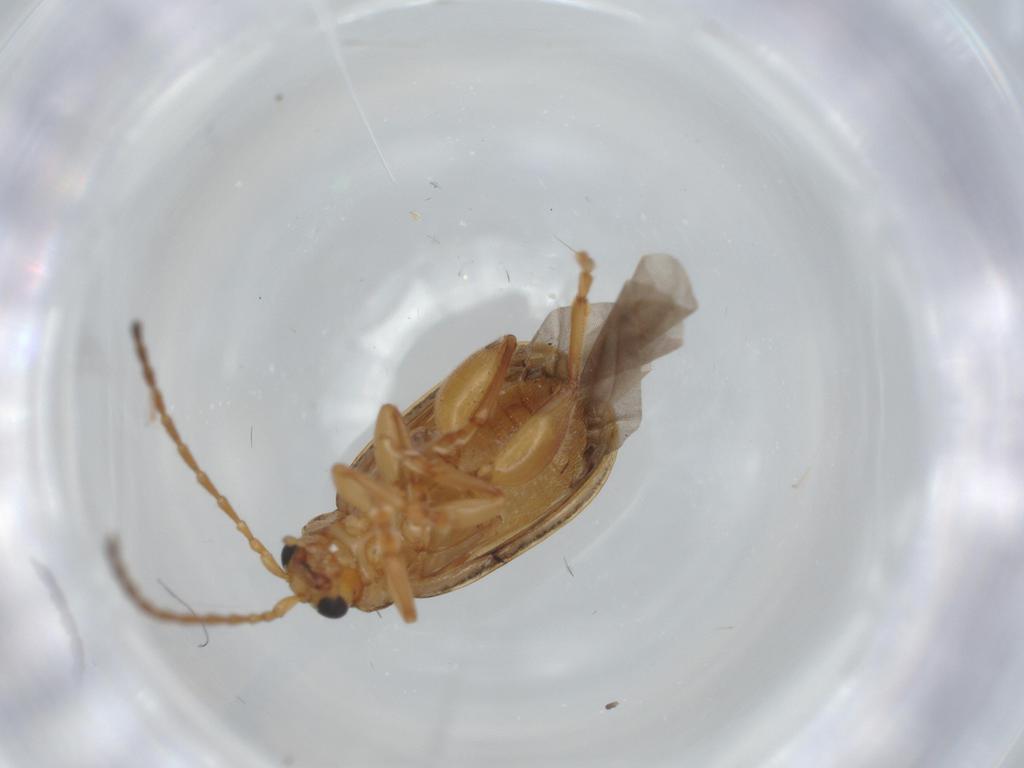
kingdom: Animalia
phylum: Arthropoda
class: Insecta
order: Coleoptera
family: Chrysomelidae
